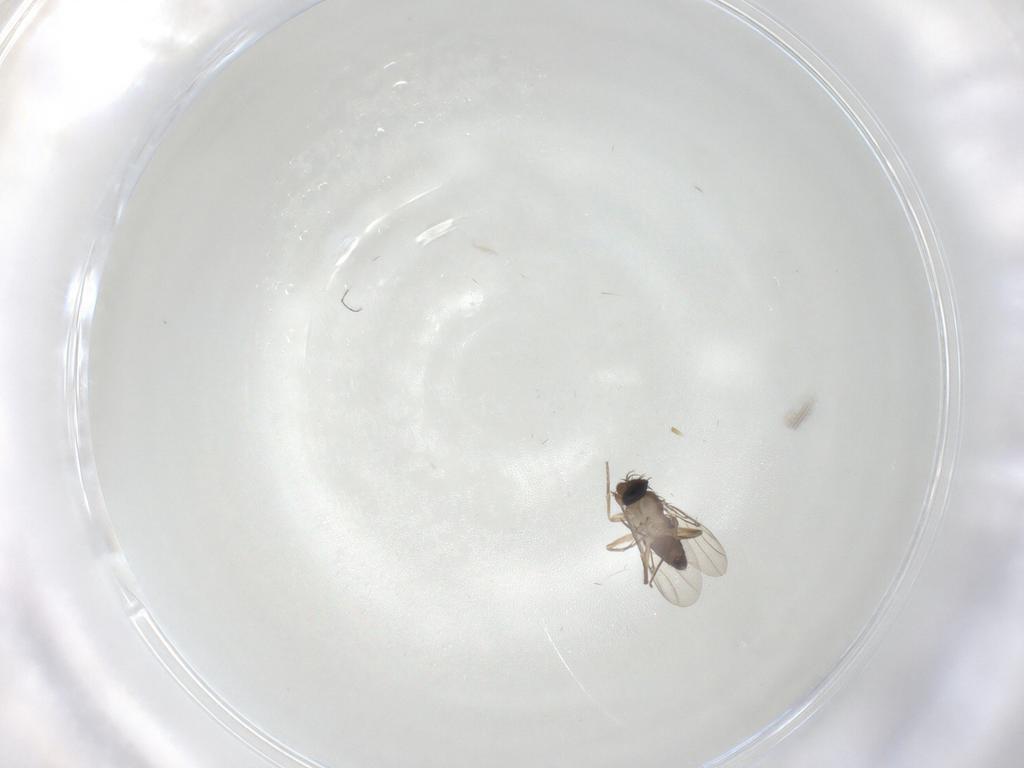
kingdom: Animalia
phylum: Arthropoda
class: Insecta
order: Diptera
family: Phoridae
